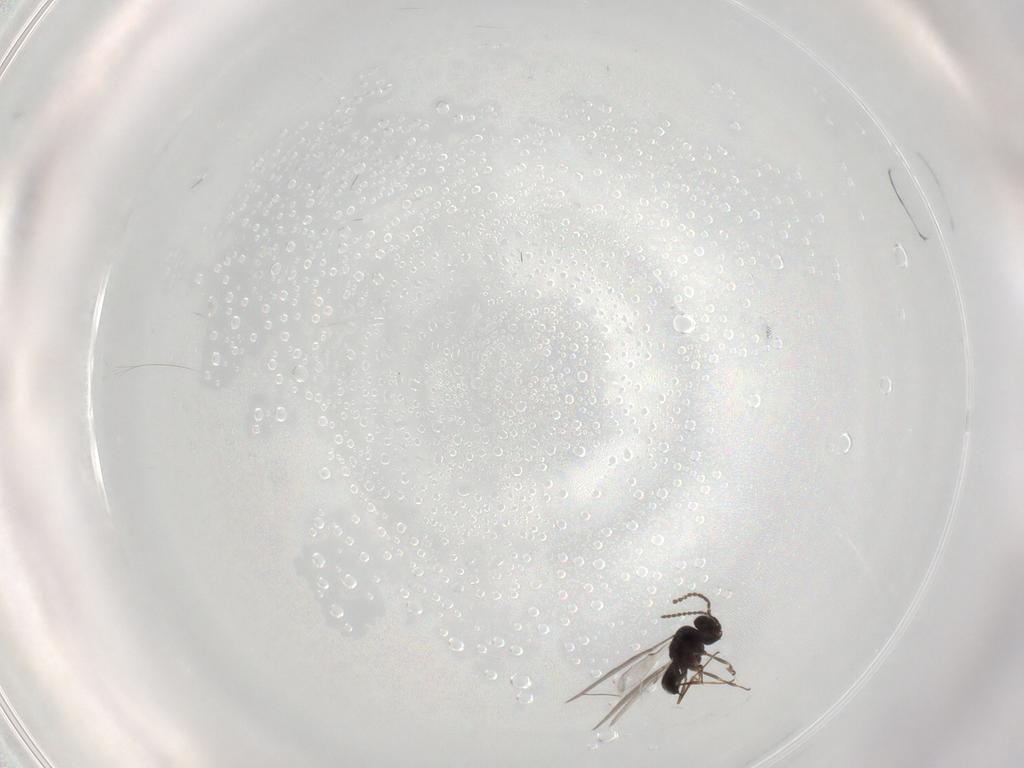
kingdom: Animalia
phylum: Arthropoda
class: Insecta
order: Hymenoptera
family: Scelionidae
